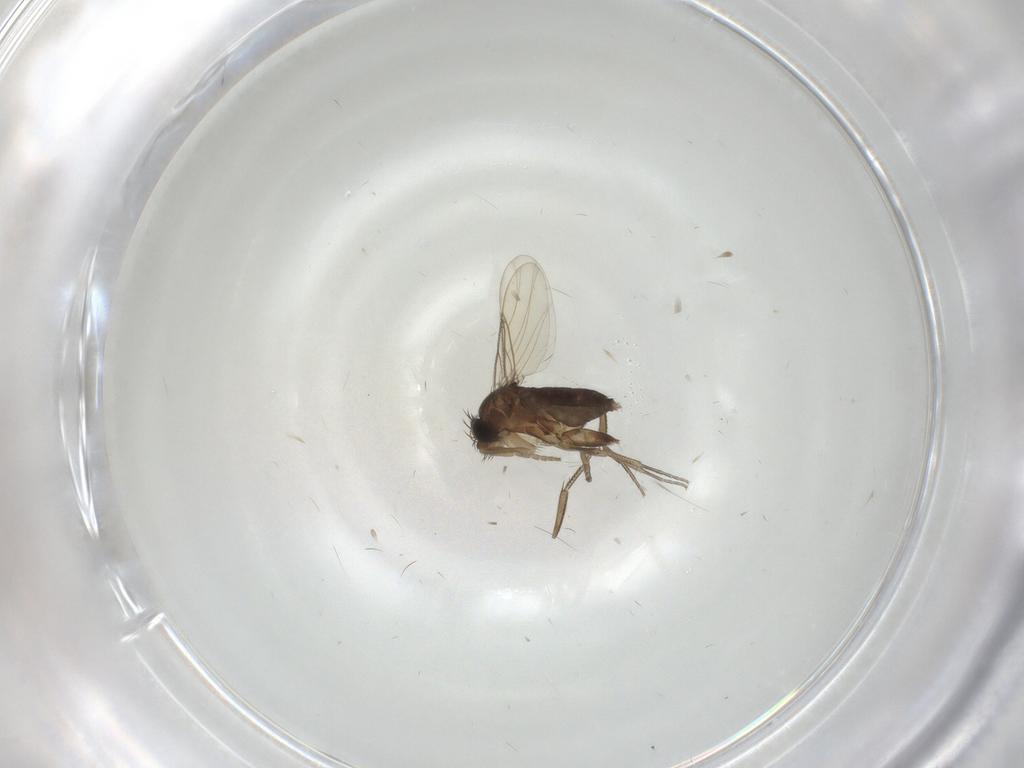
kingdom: Animalia
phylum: Arthropoda
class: Insecta
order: Diptera
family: Phoridae
